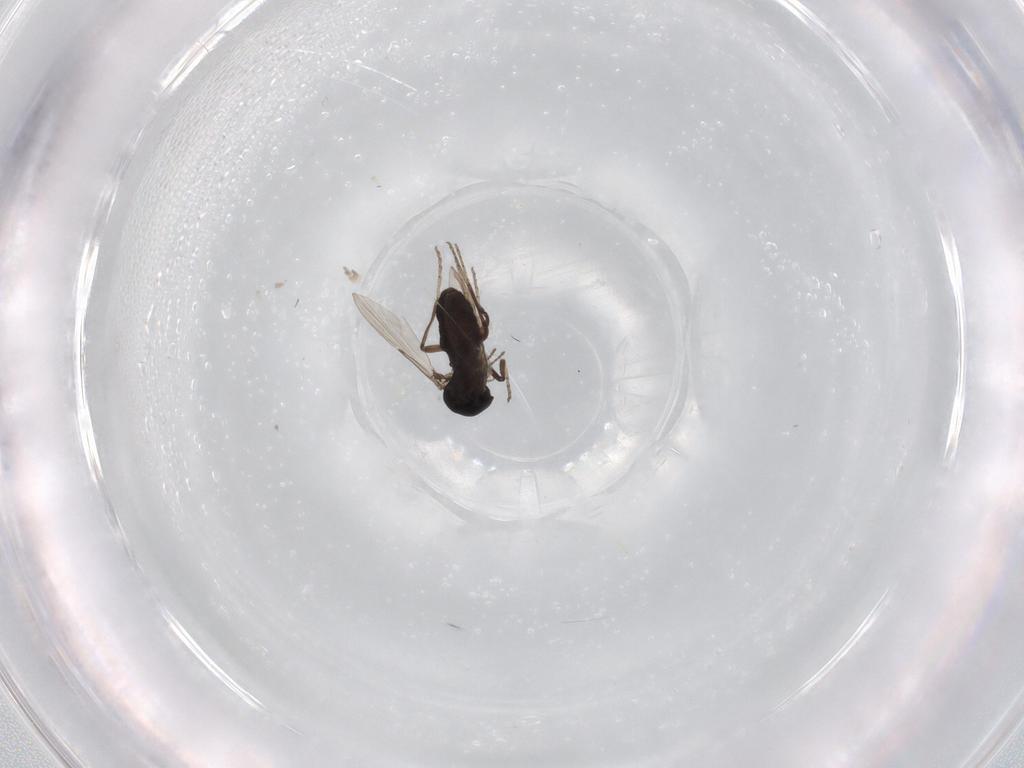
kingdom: Animalia
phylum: Arthropoda
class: Insecta
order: Diptera
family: Ceratopogonidae
